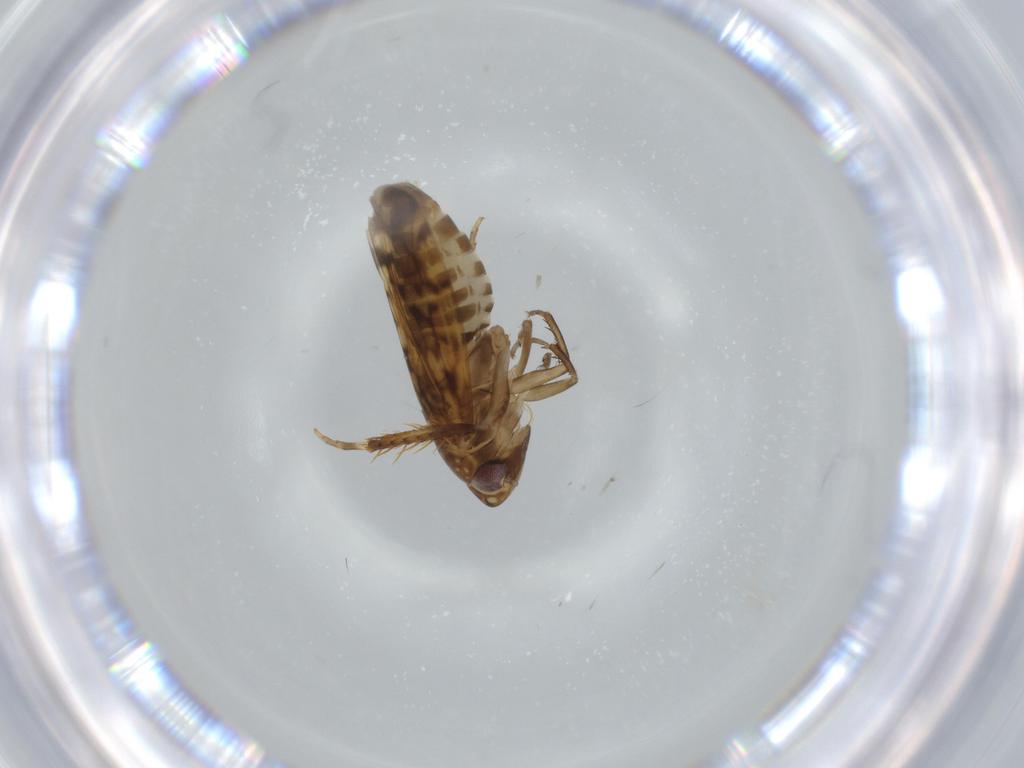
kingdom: Animalia
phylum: Arthropoda
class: Insecta
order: Hemiptera
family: Cicadellidae
